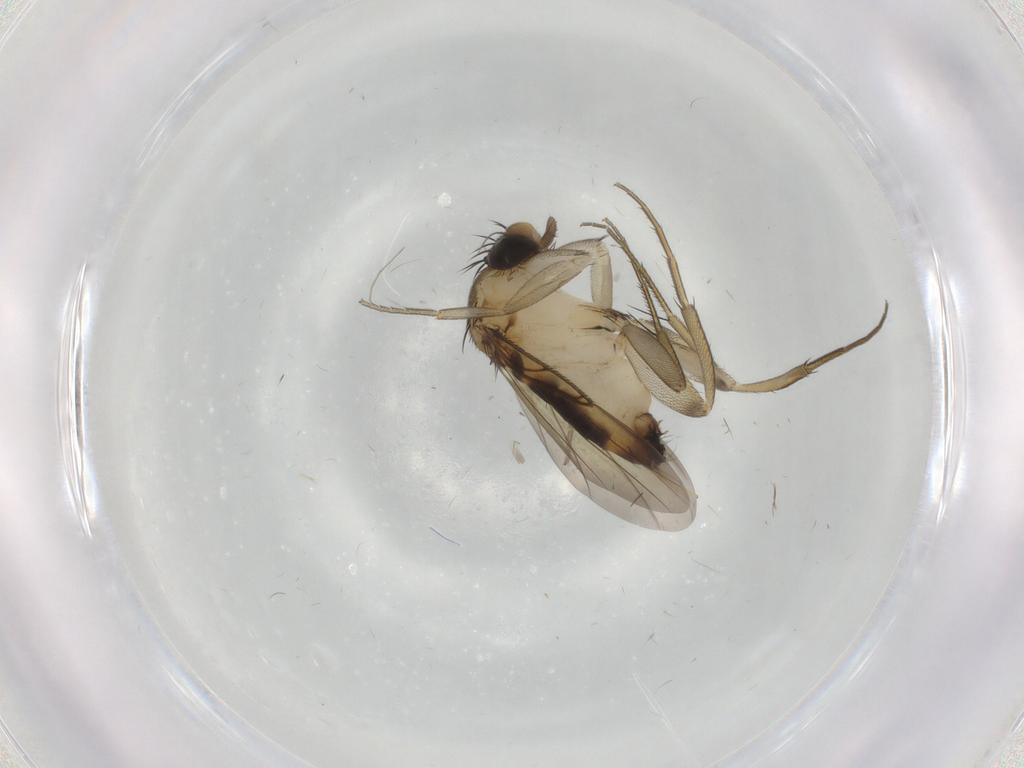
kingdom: Animalia
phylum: Arthropoda
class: Insecta
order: Diptera
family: Phoridae
